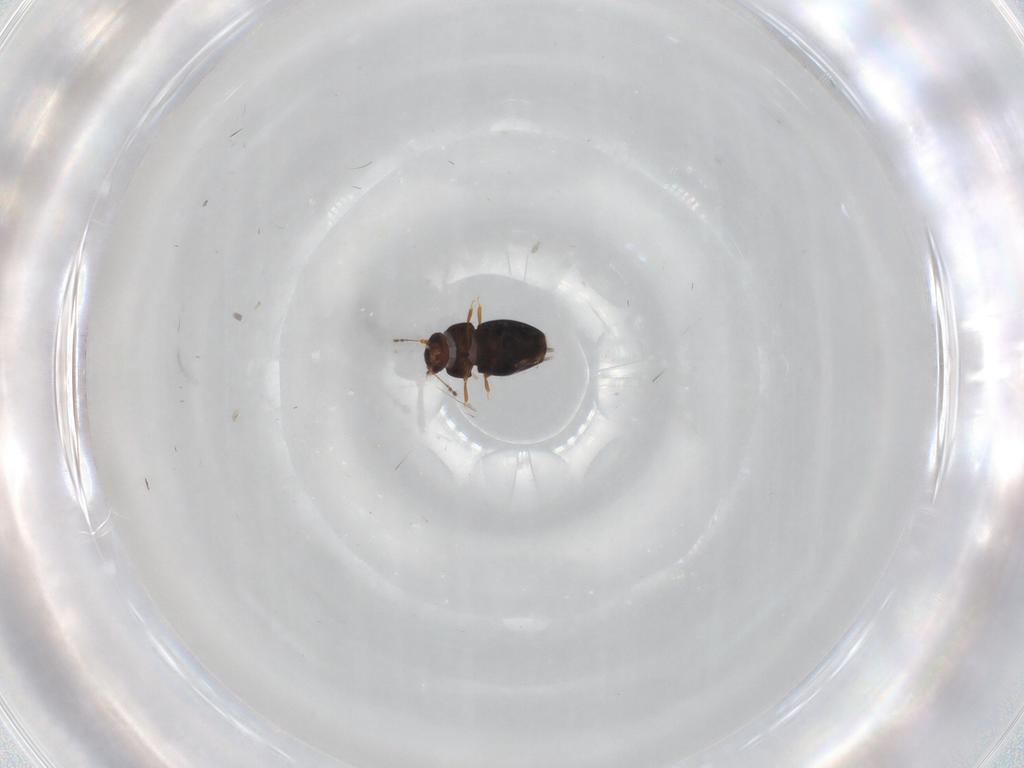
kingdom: Animalia
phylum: Arthropoda
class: Insecta
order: Coleoptera
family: Ptiliidae
